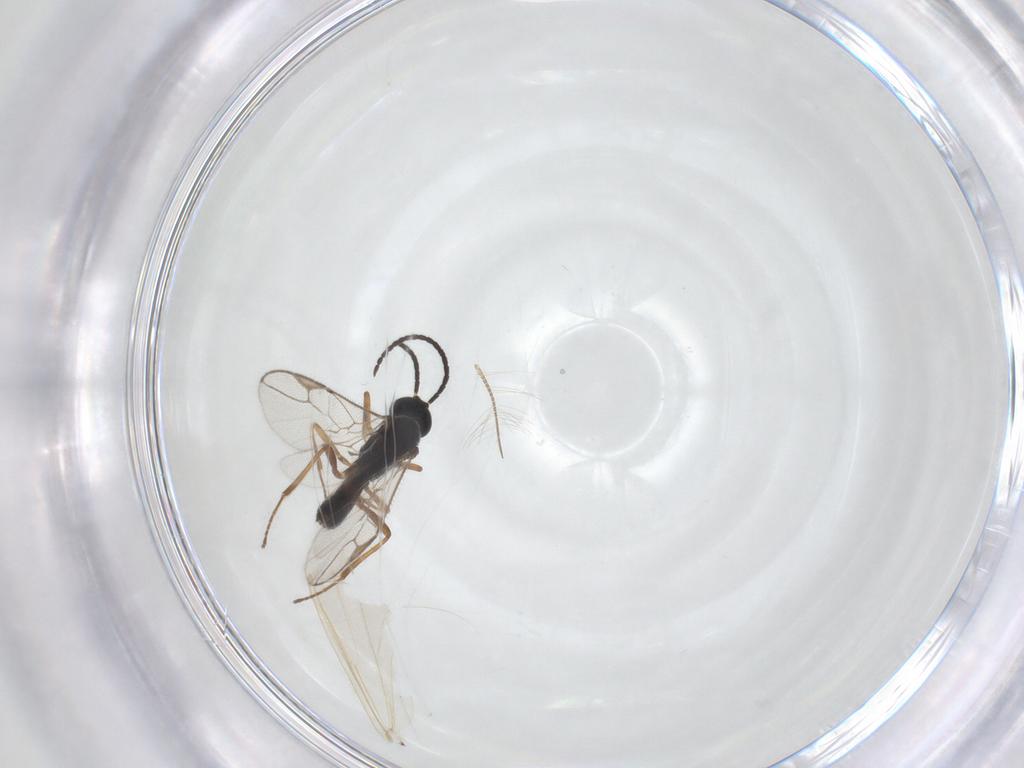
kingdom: Animalia
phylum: Arthropoda
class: Insecta
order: Hymenoptera
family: Braconidae
